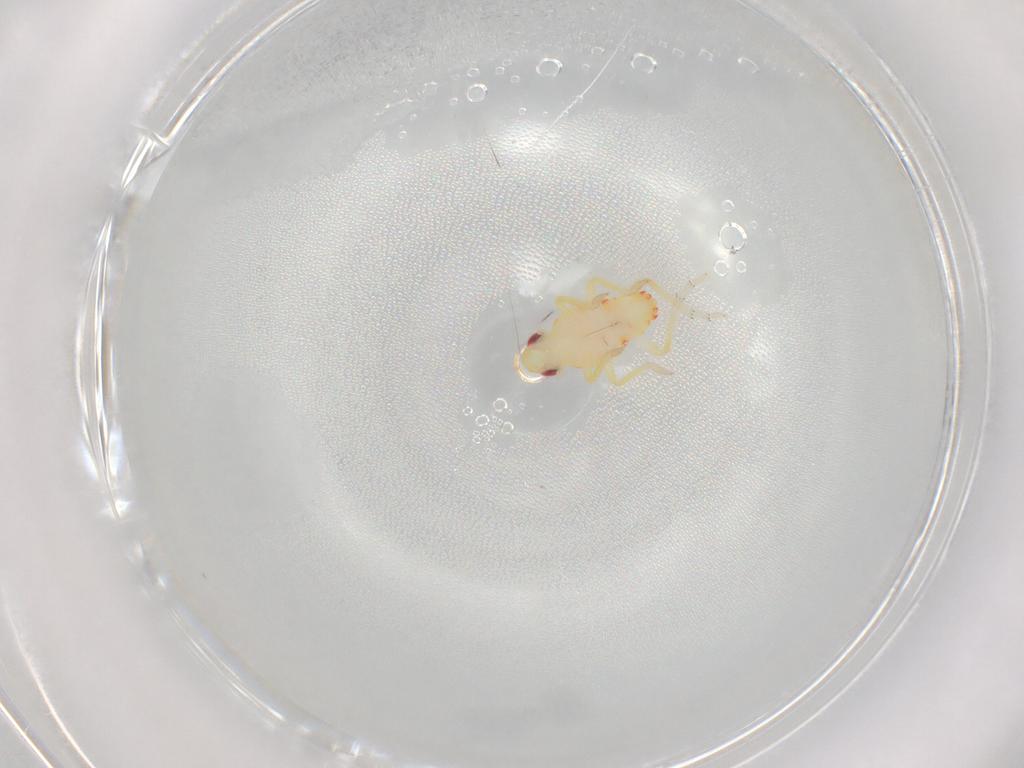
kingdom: Animalia
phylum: Arthropoda
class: Insecta
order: Hemiptera
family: Tropiduchidae
